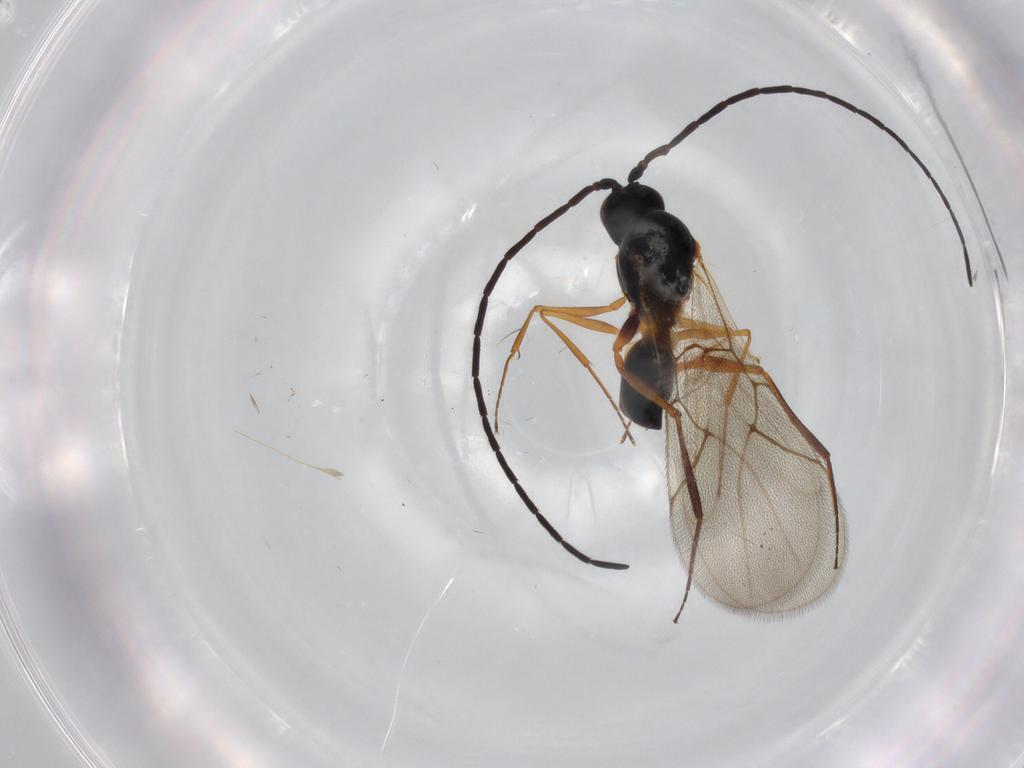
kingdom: Animalia
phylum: Arthropoda
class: Insecta
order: Hymenoptera
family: Figitidae
